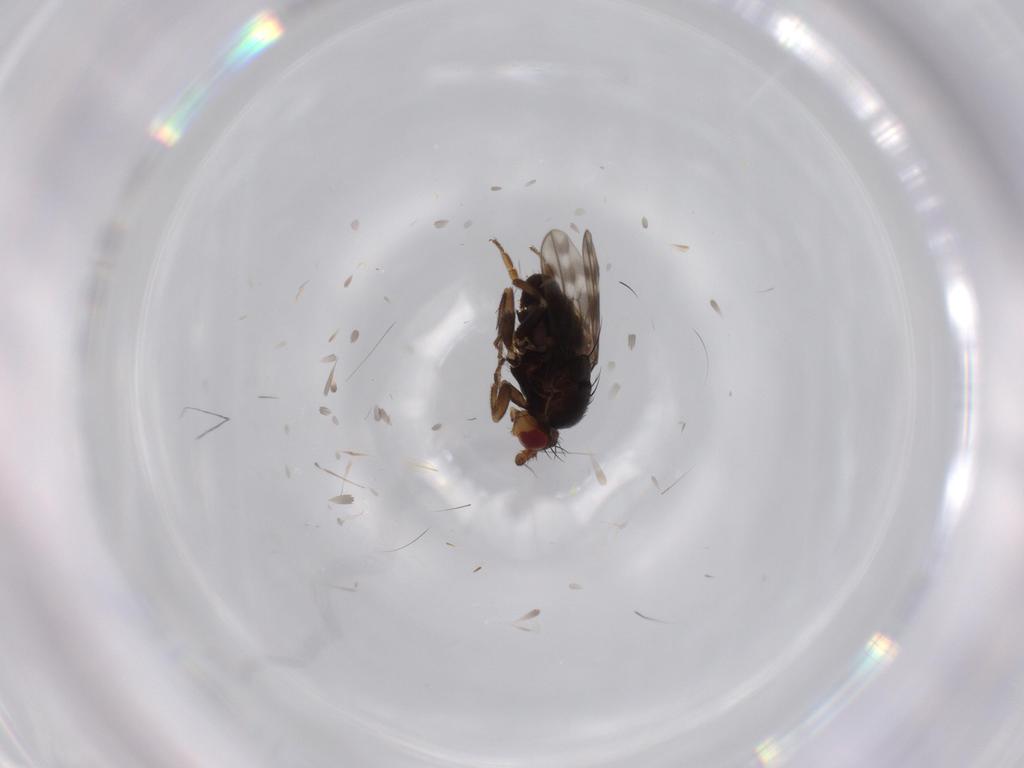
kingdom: Animalia
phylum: Arthropoda
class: Insecta
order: Diptera
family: Sphaeroceridae
